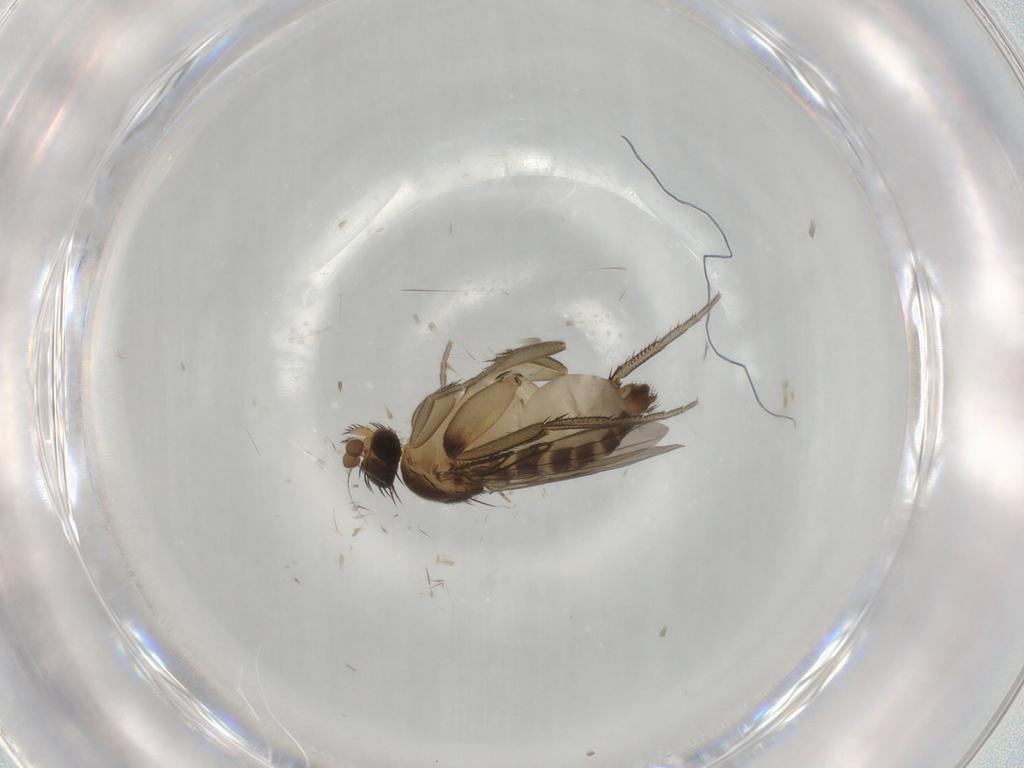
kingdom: Animalia
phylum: Arthropoda
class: Insecta
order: Diptera
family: Phoridae
